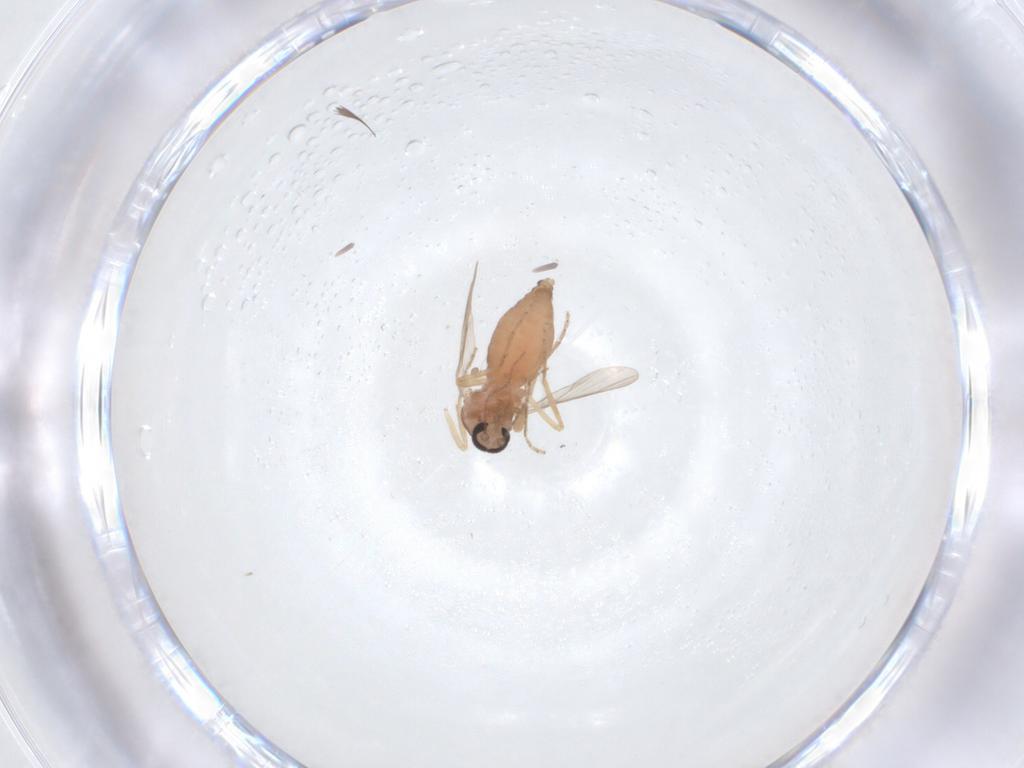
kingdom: Animalia
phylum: Arthropoda
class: Insecta
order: Diptera
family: Ceratopogonidae
